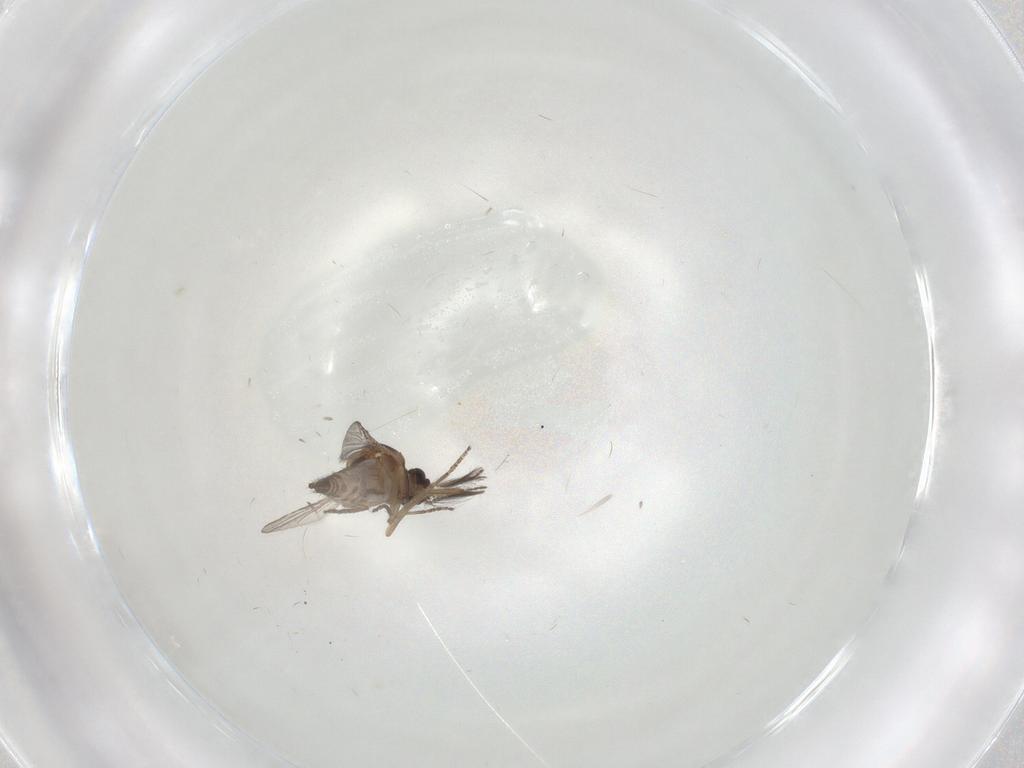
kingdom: Animalia
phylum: Arthropoda
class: Insecta
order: Diptera
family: Ceratopogonidae
